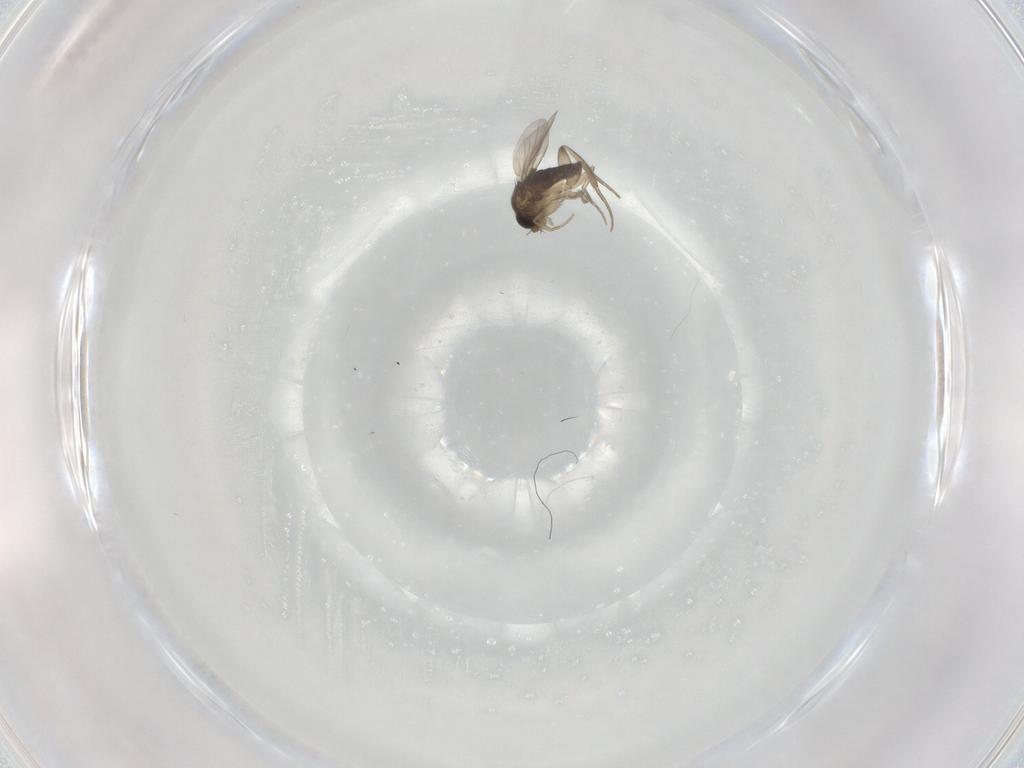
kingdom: Animalia
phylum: Arthropoda
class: Insecta
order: Diptera
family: Phoridae
